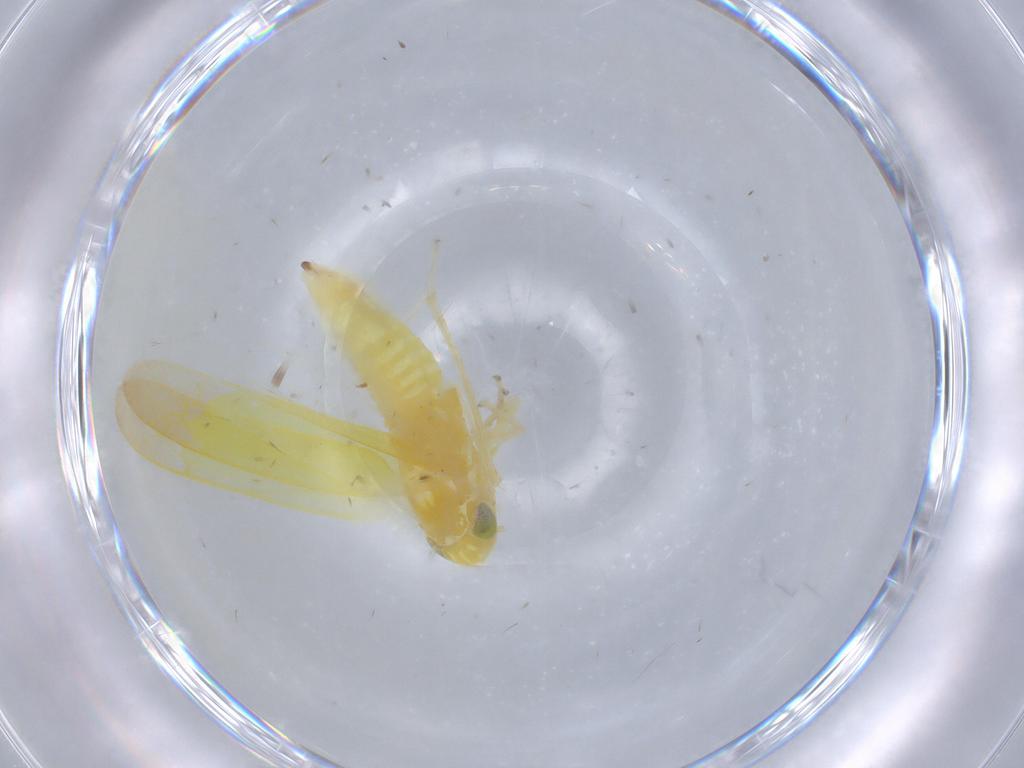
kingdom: Animalia
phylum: Arthropoda
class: Insecta
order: Hemiptera
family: Cicadellidae
